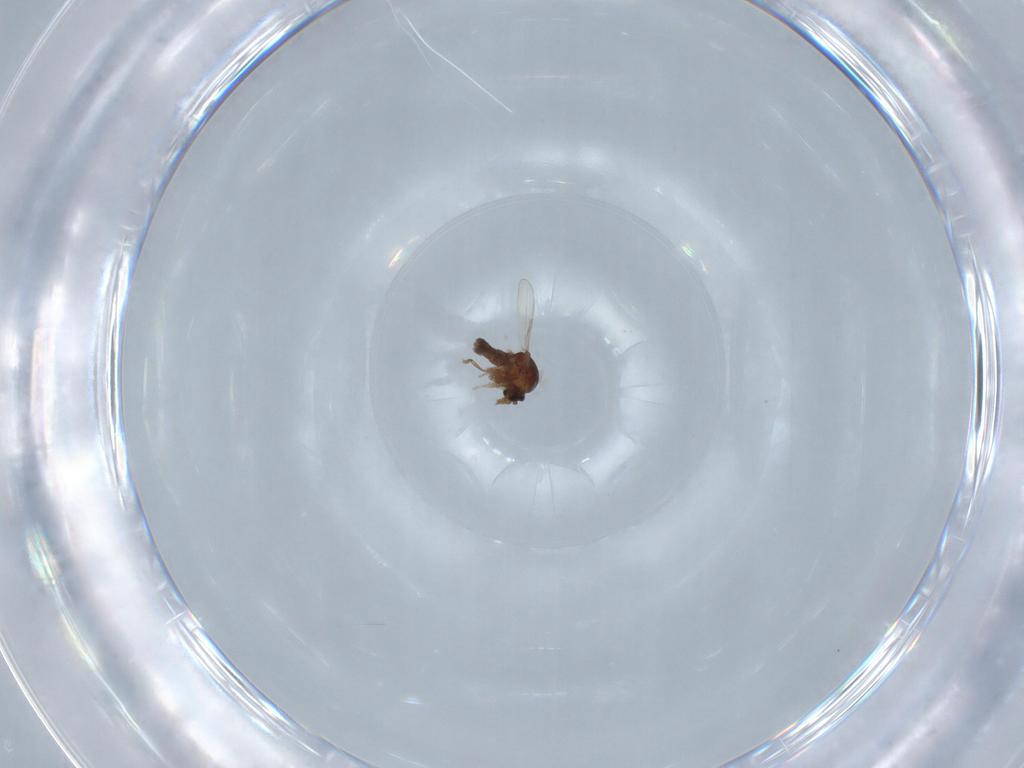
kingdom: Animalia
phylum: Arthropoda
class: Insecta
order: Diptera
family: Ceratopogonidae
